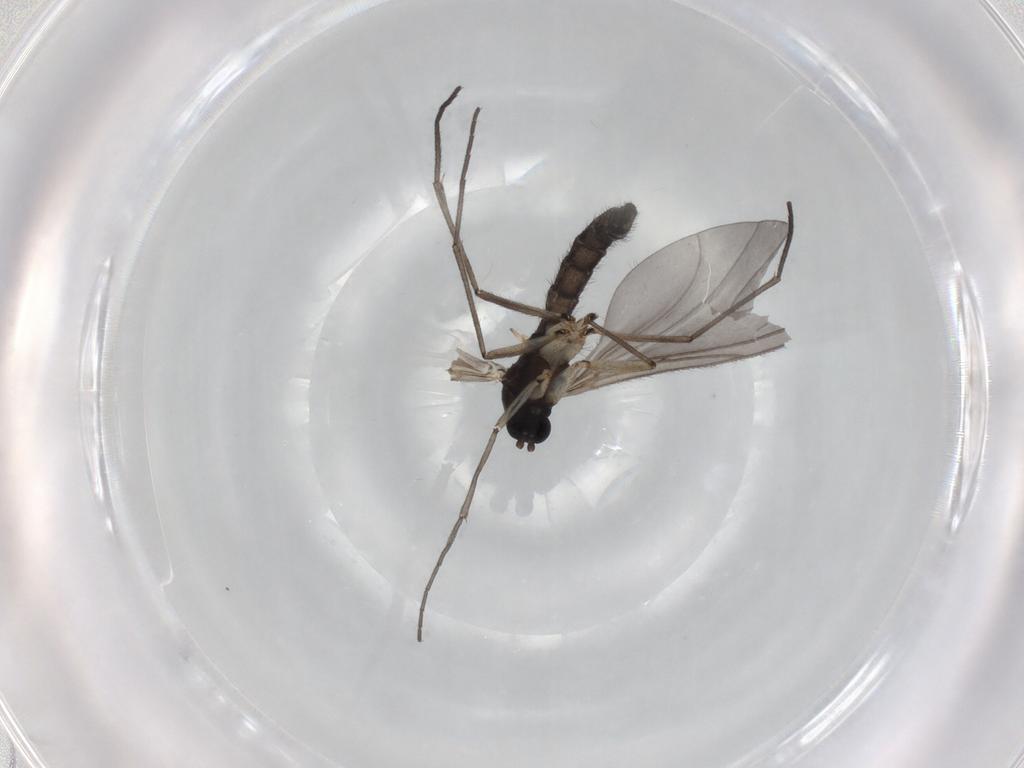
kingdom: Animalia
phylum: Arthropoda
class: Insecta
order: Diptera
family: Sciaridae
